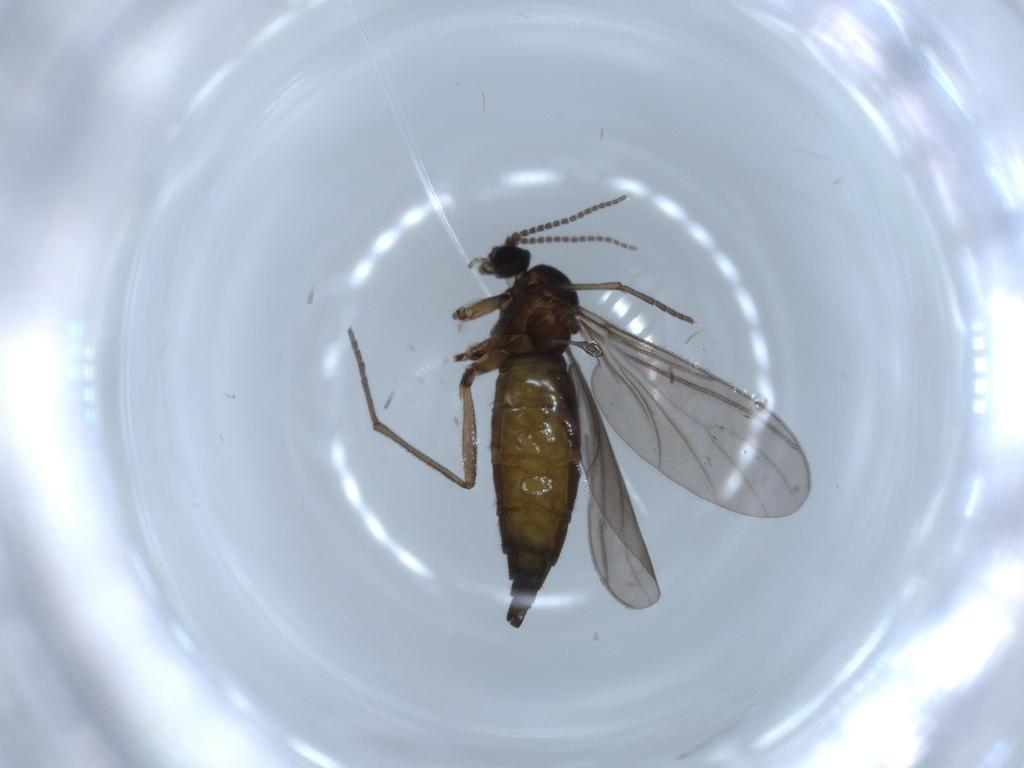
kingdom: Animalia
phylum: Arthropoda
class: Insecta
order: Diptera
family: Sciaridae
